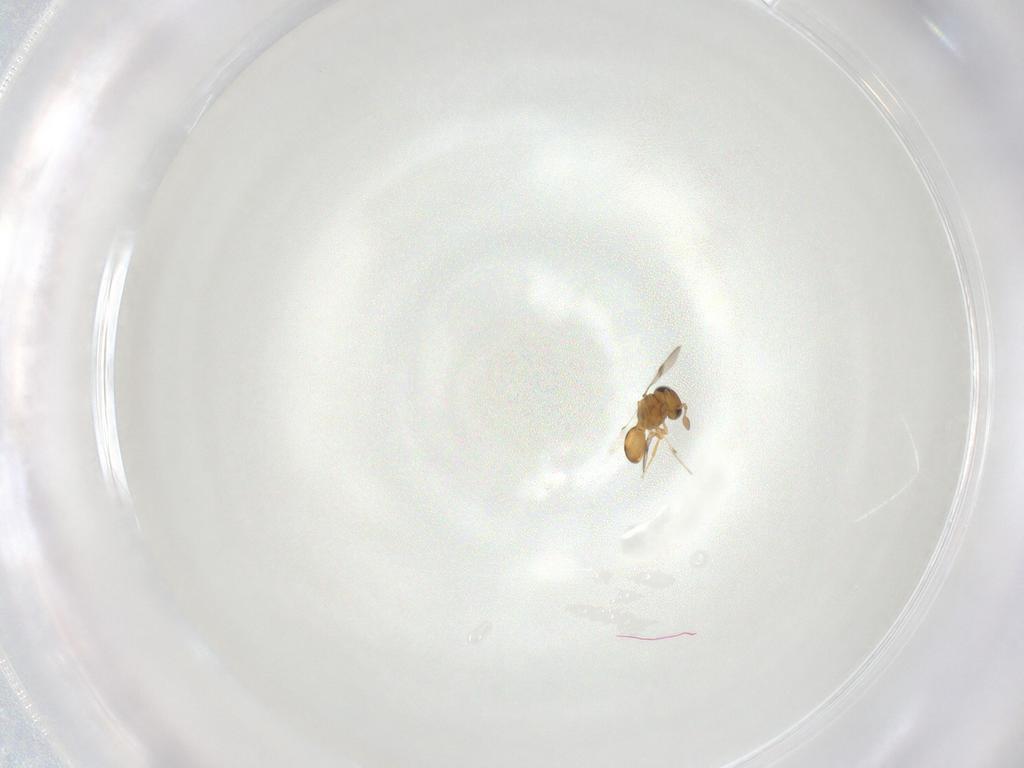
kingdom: Animalia
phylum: Arthropoda
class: Insecta
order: Hymenoptera
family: Scelionidae
